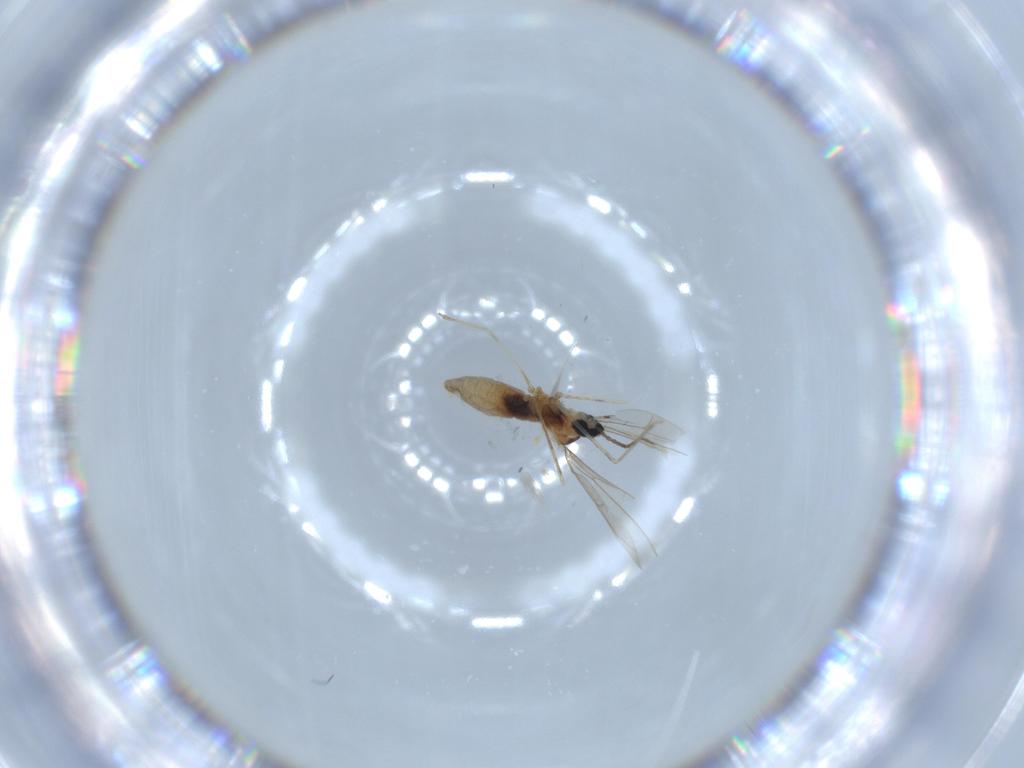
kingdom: Animalia
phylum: Arthropoda
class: Insecta
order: Diptera
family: Cecidomyiidae
